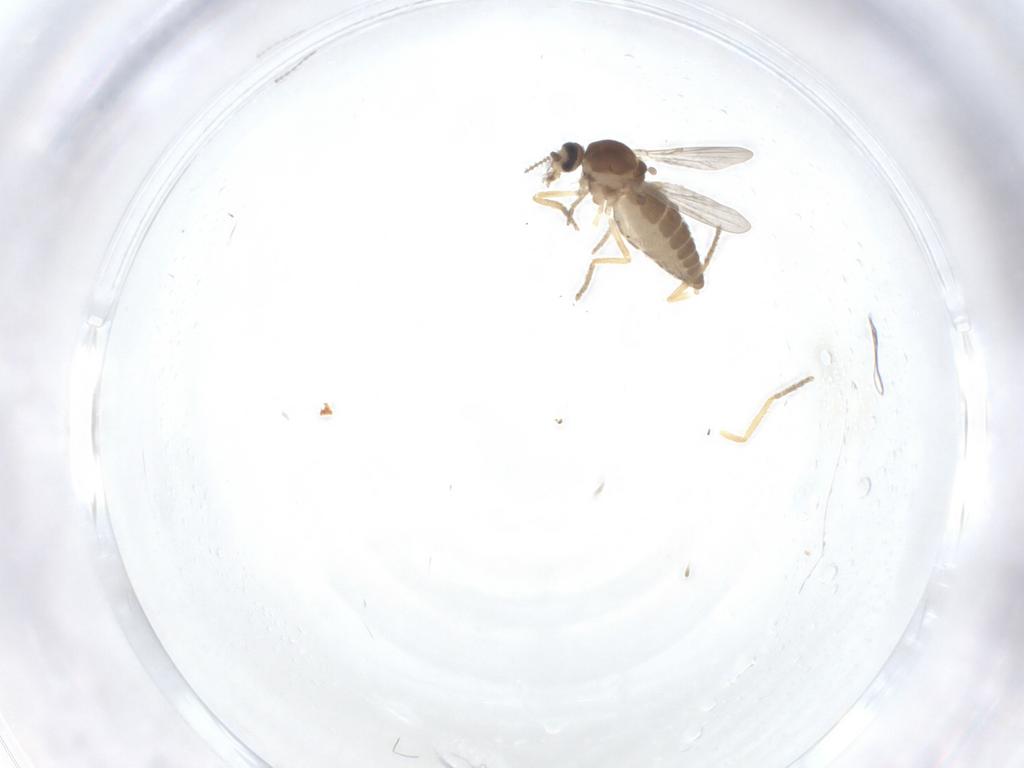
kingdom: Animalia
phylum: Arthropoda
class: Insecta
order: Diptera
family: Ceratopogonidae
